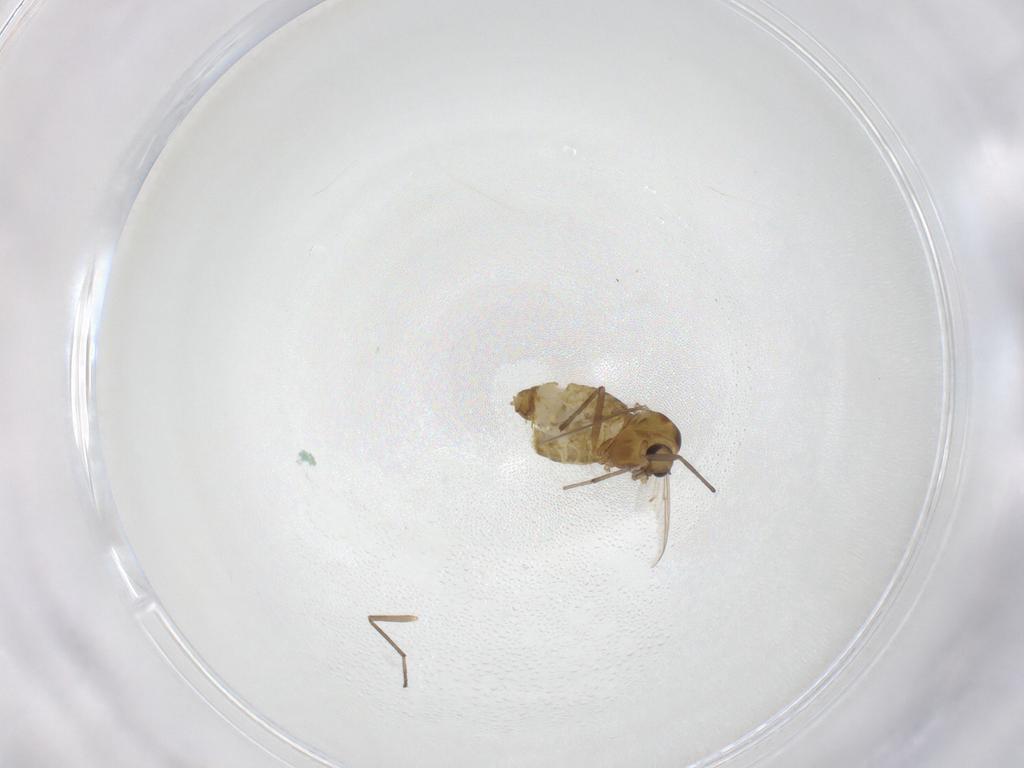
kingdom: Animalia
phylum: Arthropoda
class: Insecta
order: Diptera
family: Chironomidae
